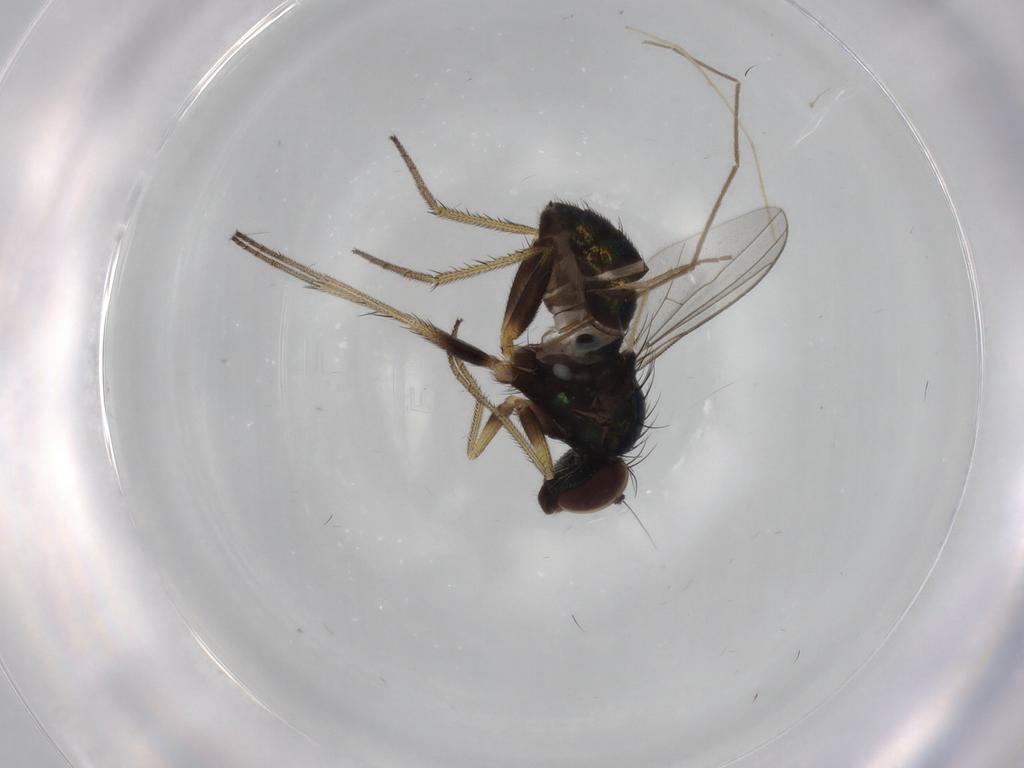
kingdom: Animalia
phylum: Arthropoda
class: Insecta
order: Diptera
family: Dolichopodidae
